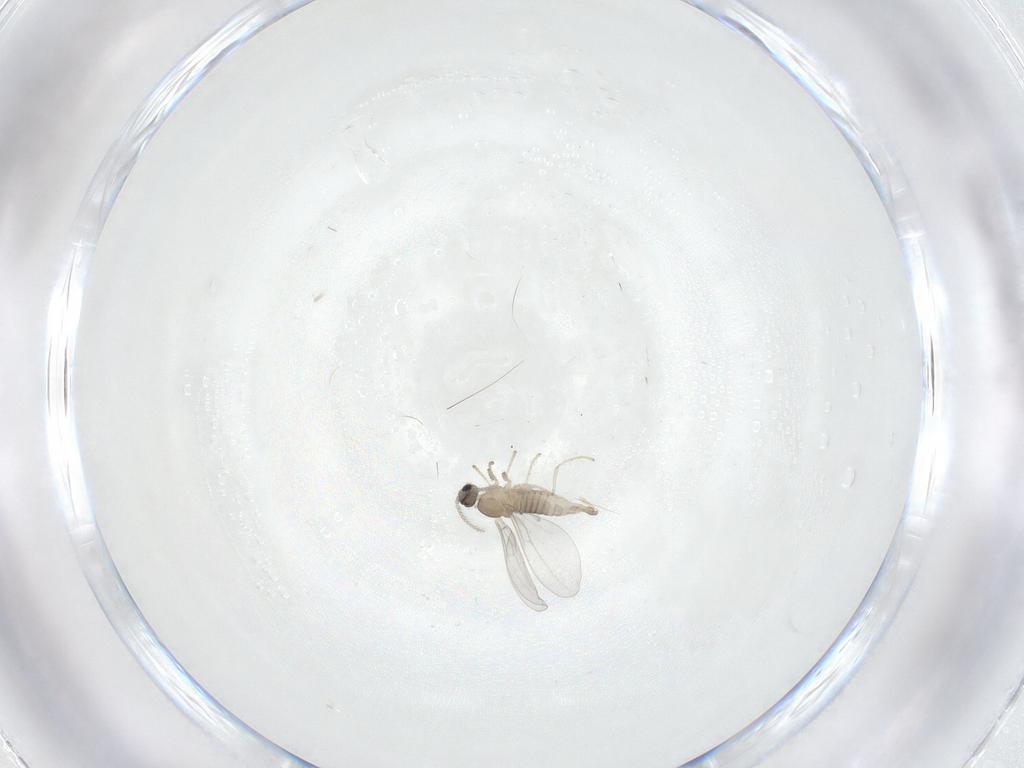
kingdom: Animalia
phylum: Arthropoda
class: Insecta
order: Diptera
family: Cecidomyiidae
